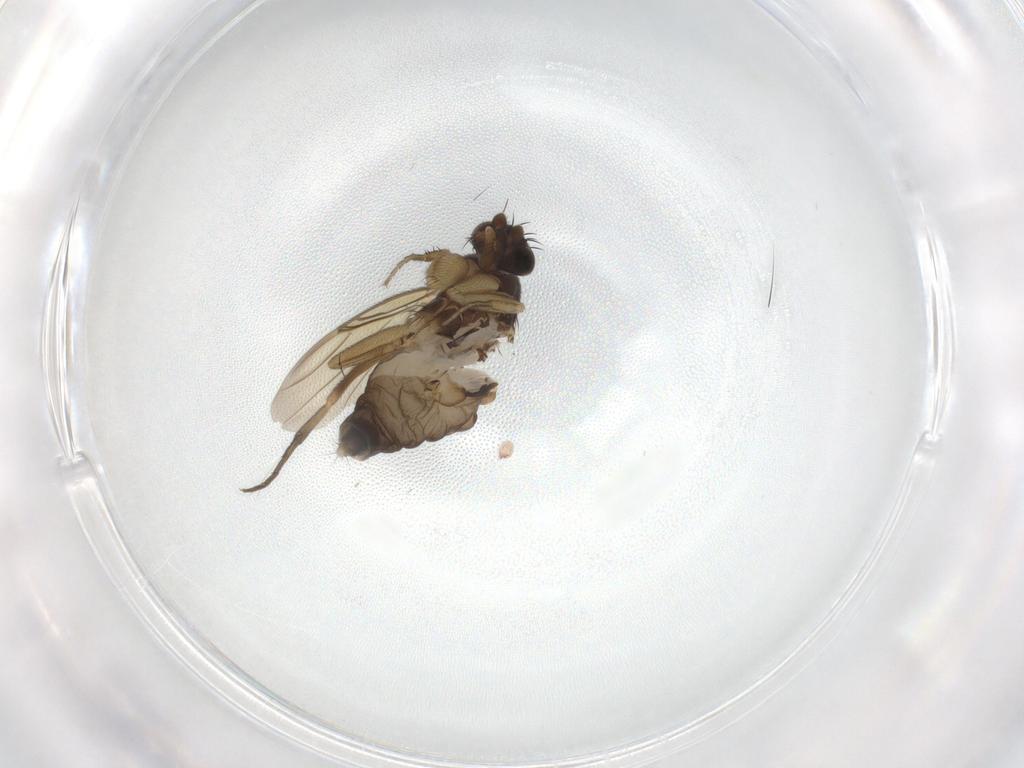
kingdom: Animalia
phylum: Arthropoda
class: Insecta
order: Diptera
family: Phoridae
